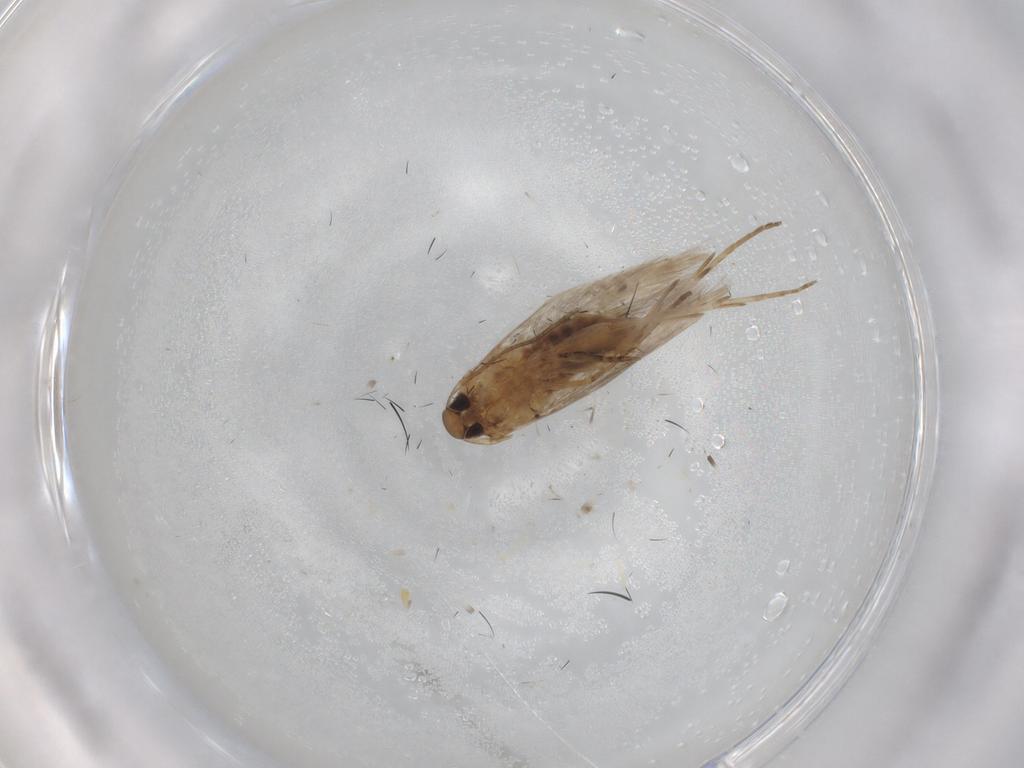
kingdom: Animalia
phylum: Arthropoda
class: Insecta
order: Lepidoptera
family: Cosmopterigidae
